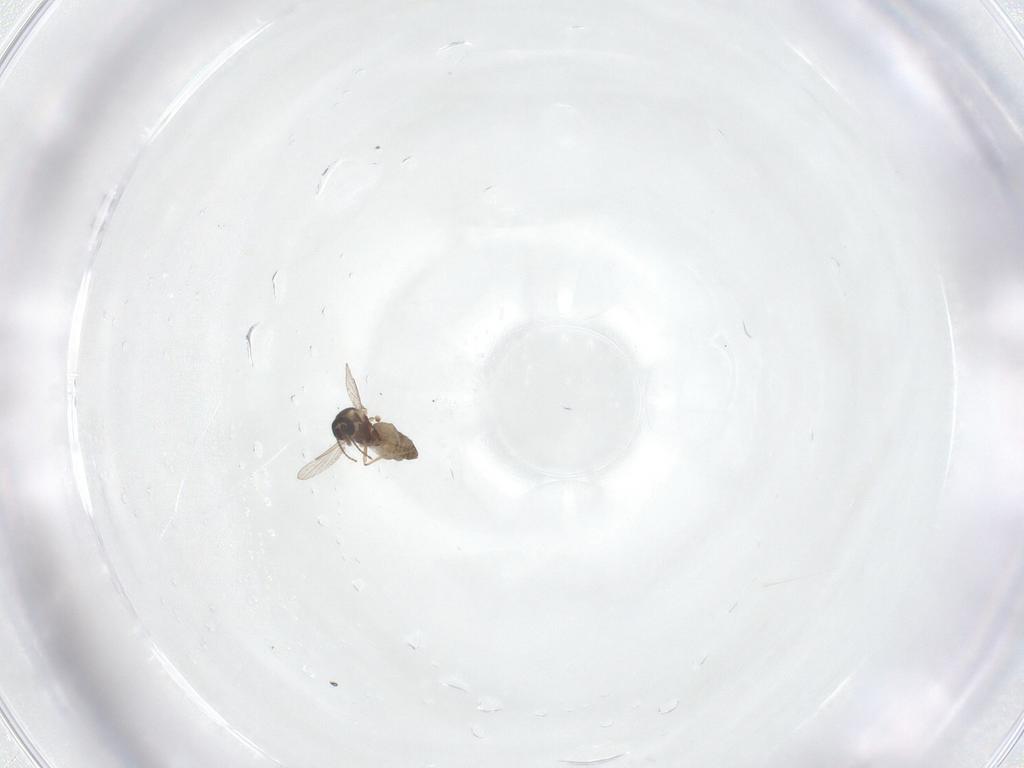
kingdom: Animalia
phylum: Arthropoda
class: Insecta
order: Diptera
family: Ceratopogonidae
